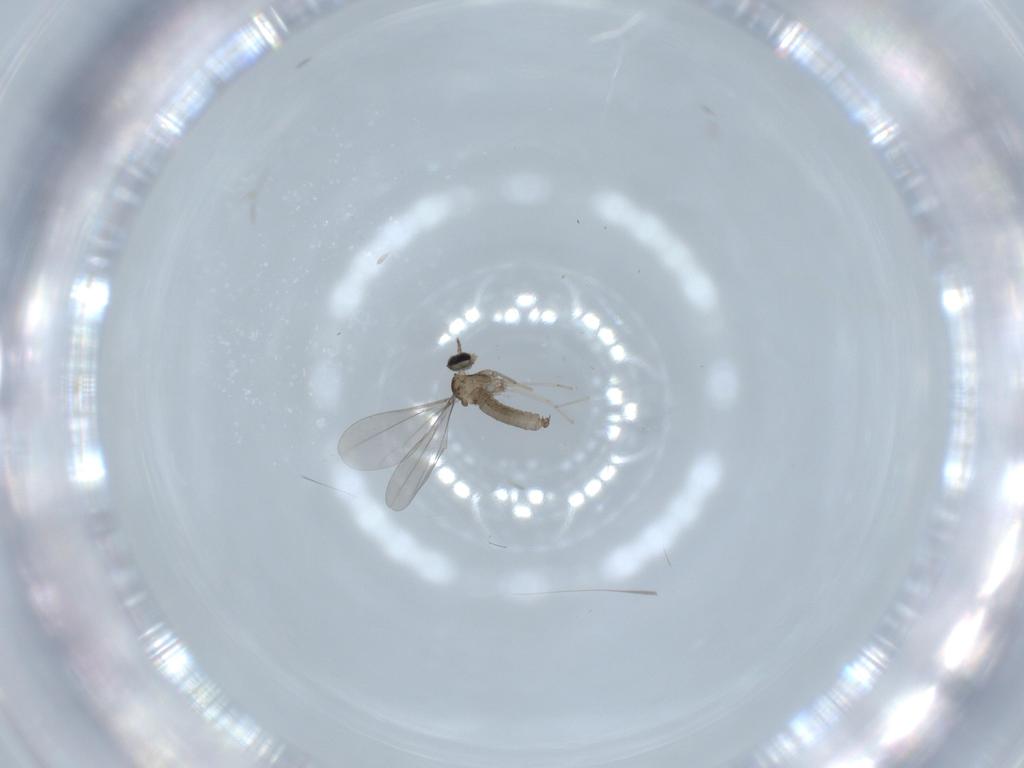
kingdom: Animalia
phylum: Arthropoda
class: Insecta
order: Diptera
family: Cecidomyiidae
